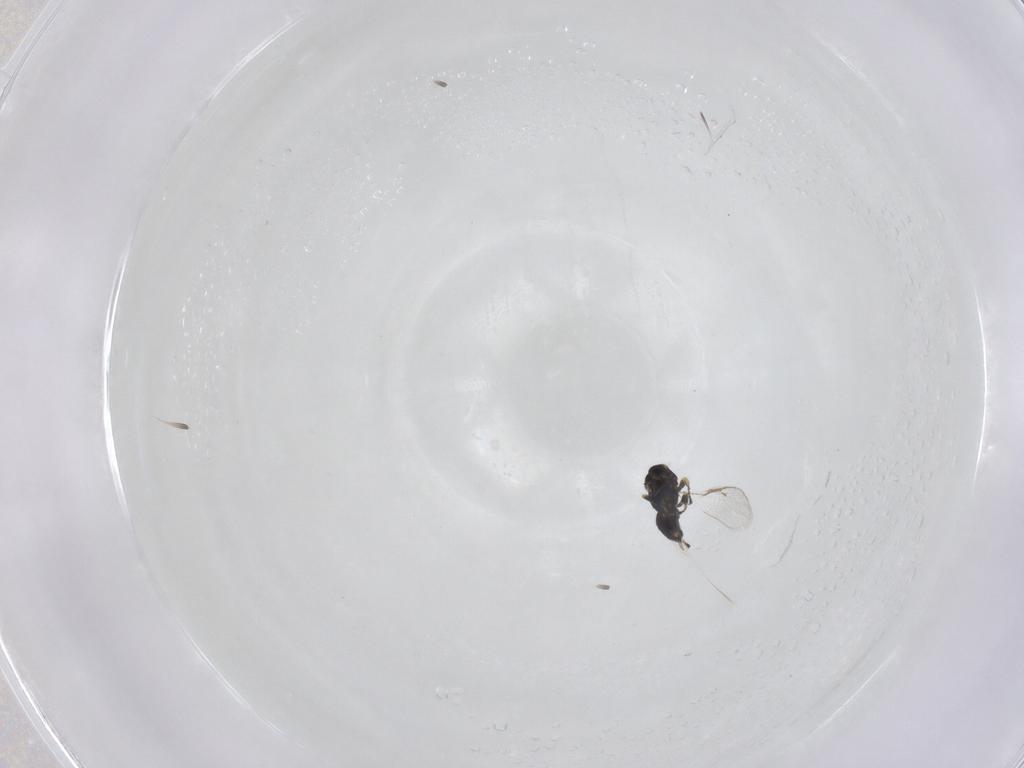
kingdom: Animalia
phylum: Arthropoda
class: Insecta
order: Hymenoptera
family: Eulophidae
